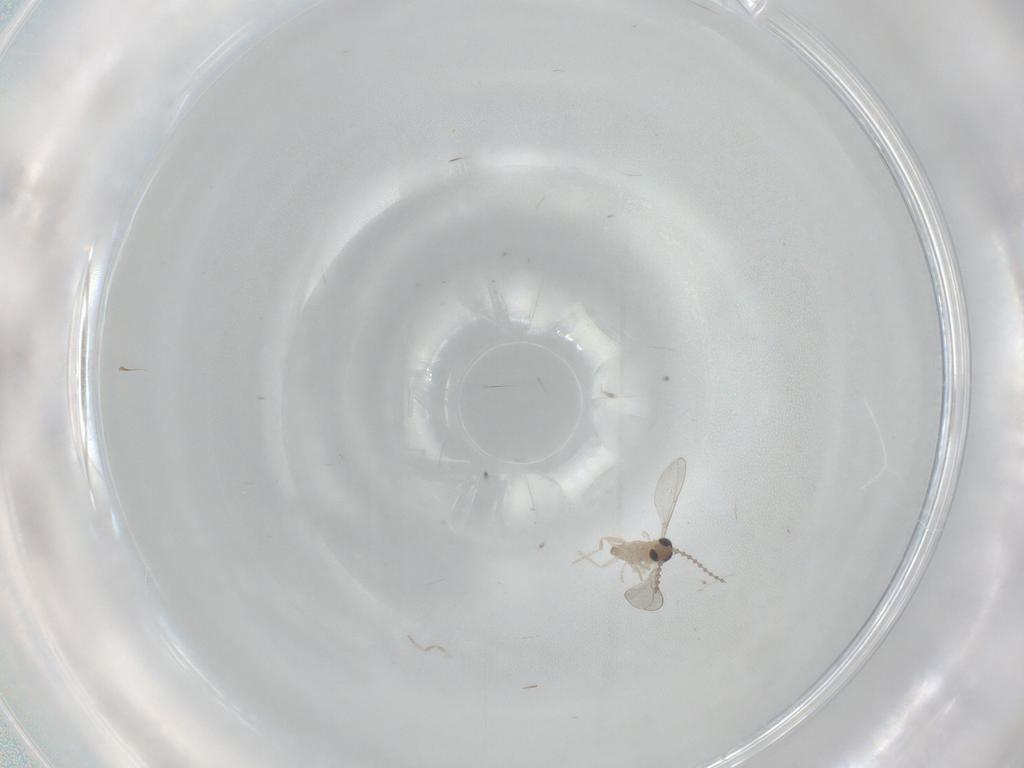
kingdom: Animalia
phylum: Arthropoda
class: Insecta
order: Diptera
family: Cecidomyiidae
